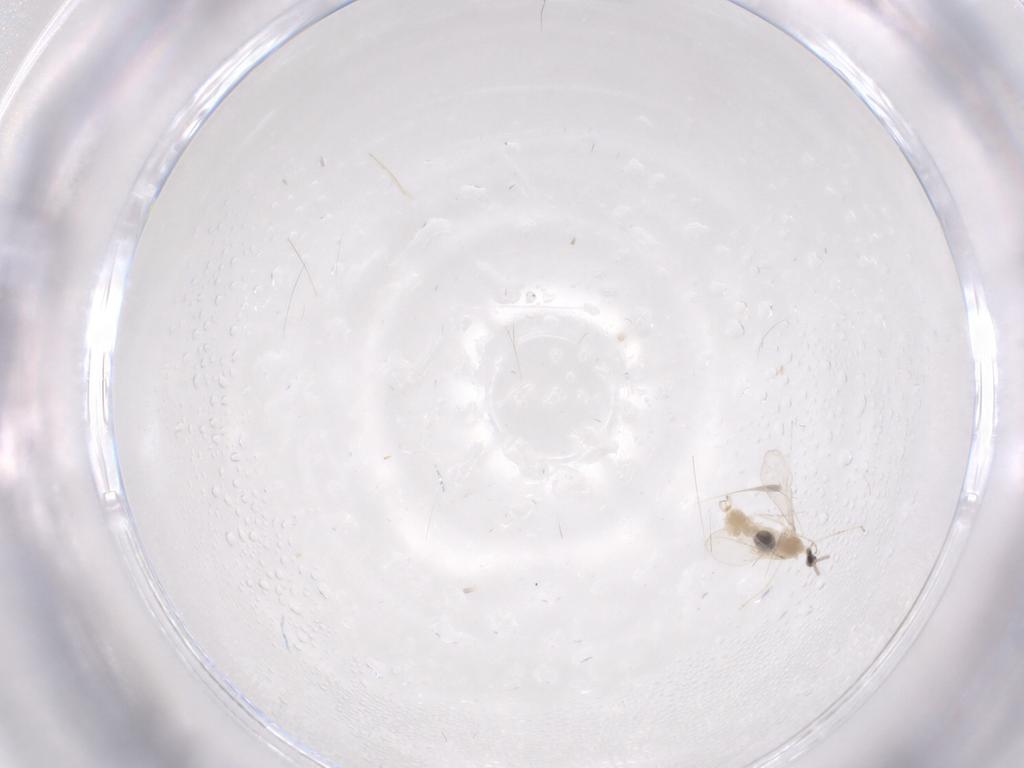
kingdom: Animalia
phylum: Arthropoda
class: Insecta
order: Diptera
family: Cecidomyiidae
